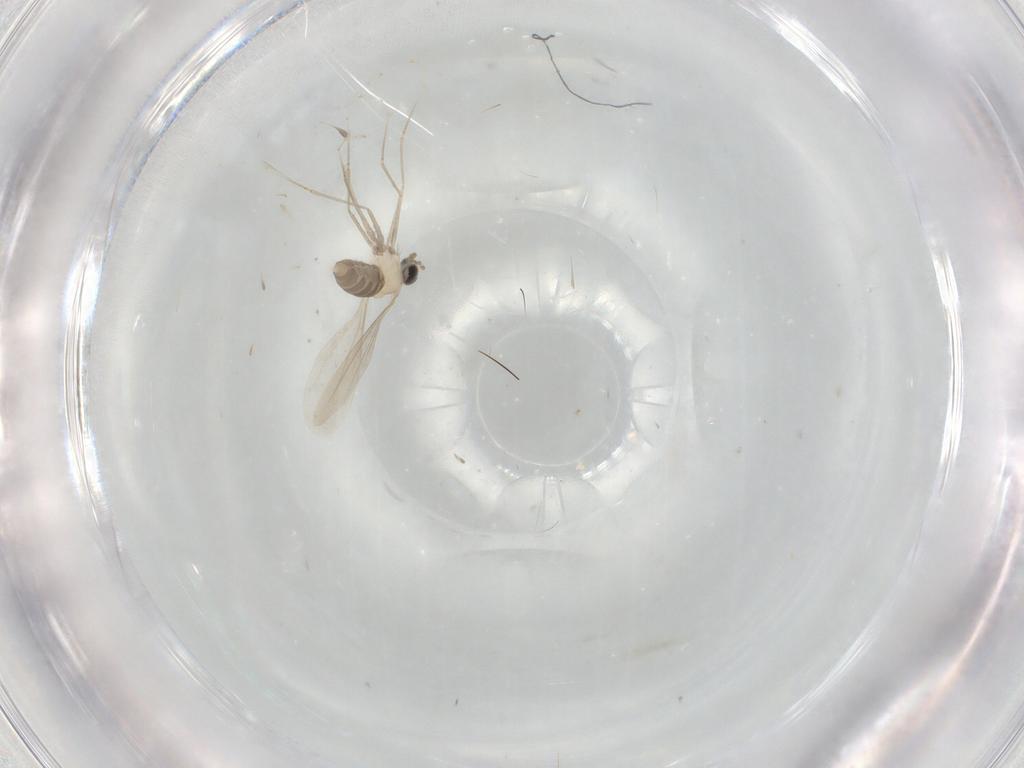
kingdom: Animalia
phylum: Arthropoda
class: Insecta
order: Diptera
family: Cecidomyiidae
